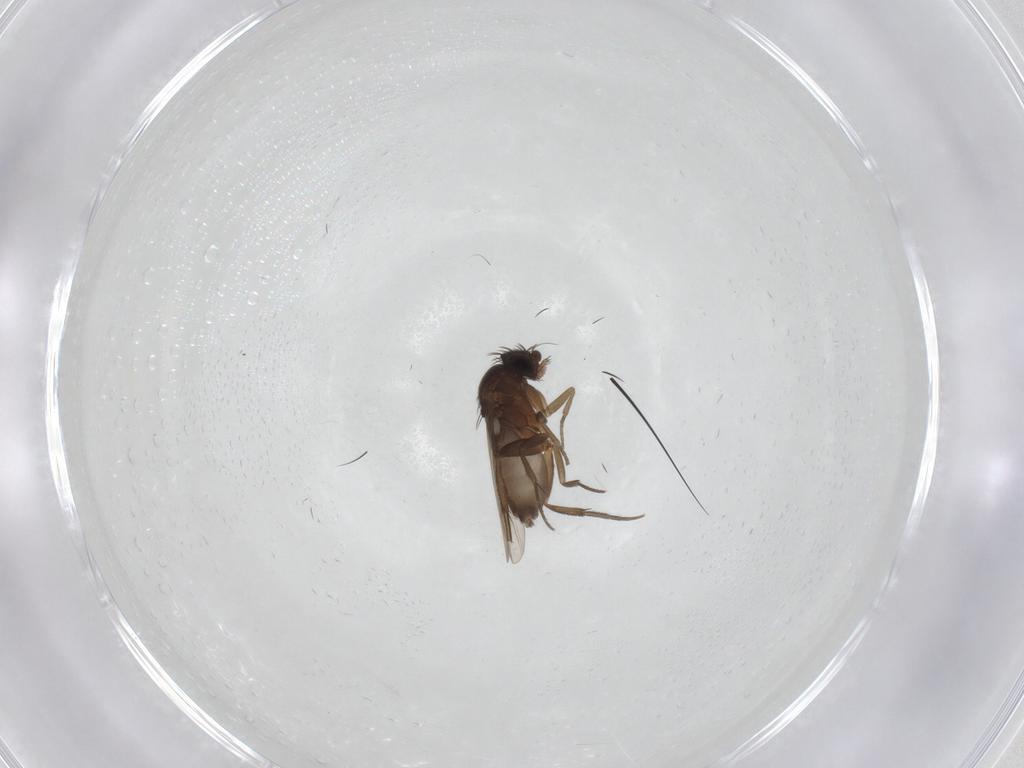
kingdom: Animalia
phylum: Arthropoda
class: Insecta
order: Diptera
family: Phoridae
